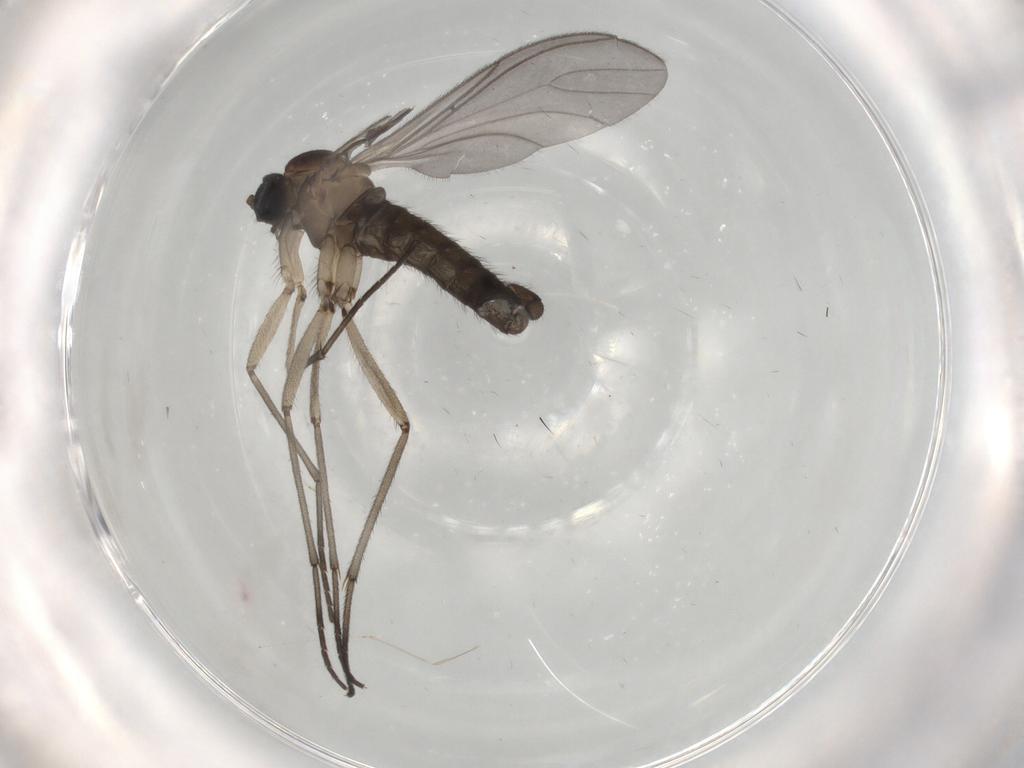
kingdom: Animalia
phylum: Arthropoda
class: Insecta
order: Diptera
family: Sciaridae
